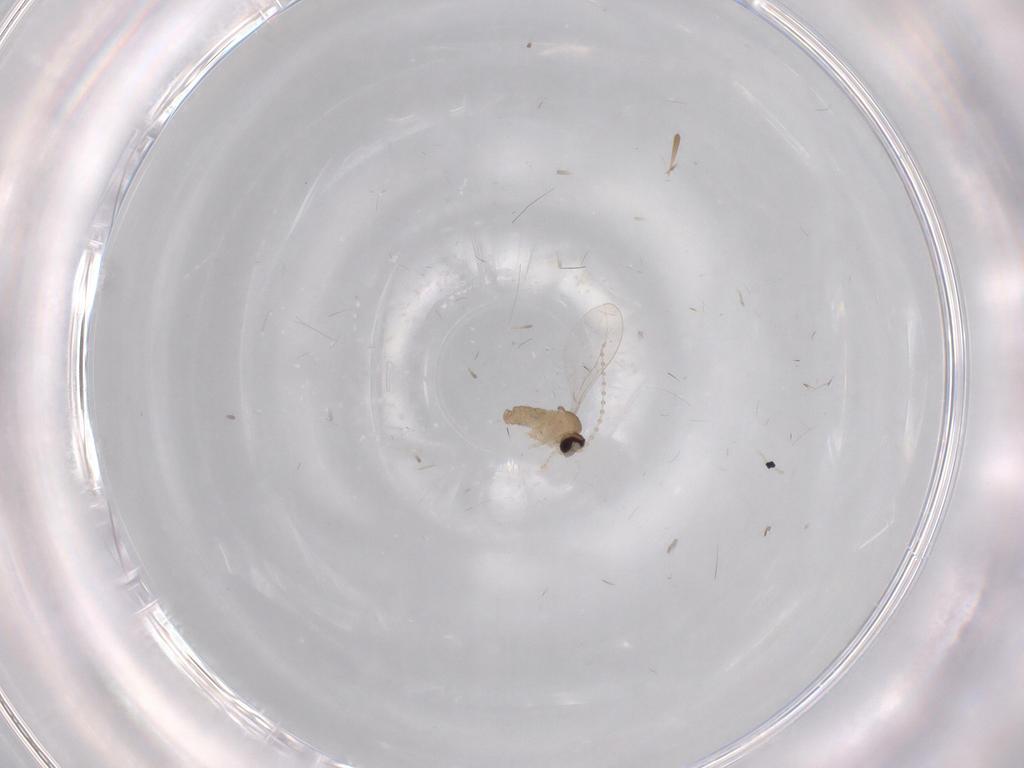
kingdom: Animalia
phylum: Arthropoda
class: Insecta
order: Diptera
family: Cecidomyiidae
